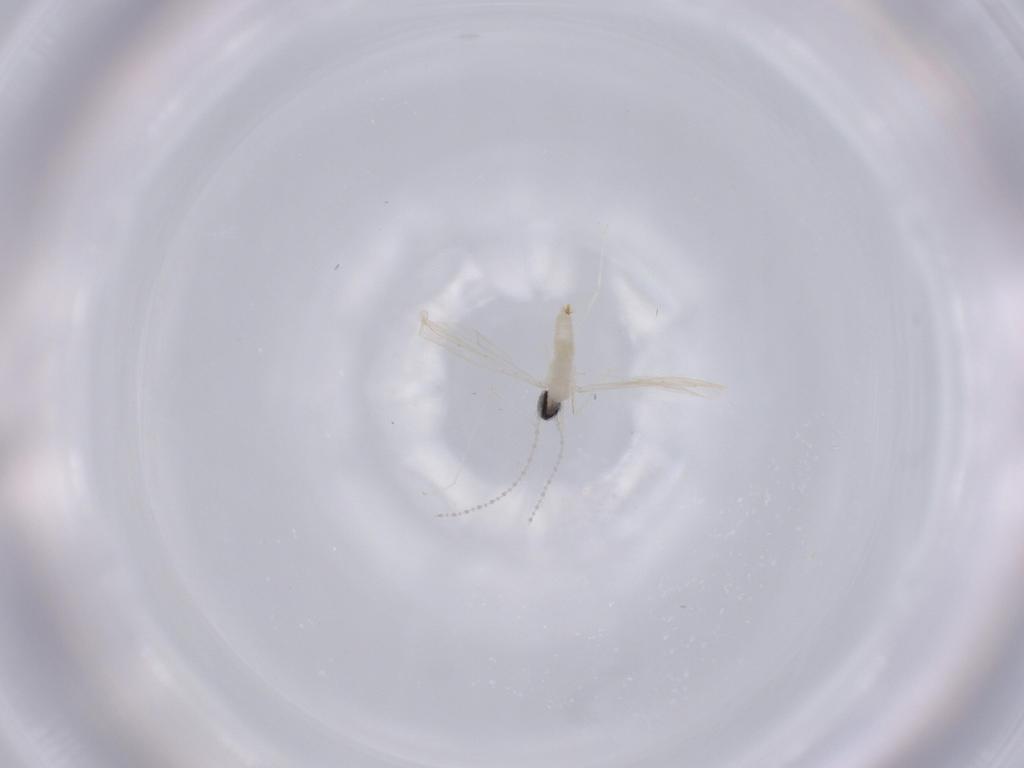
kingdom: Animalia
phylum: Arthropoda
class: Insecta
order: Diptera
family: Cecidomyiidae
